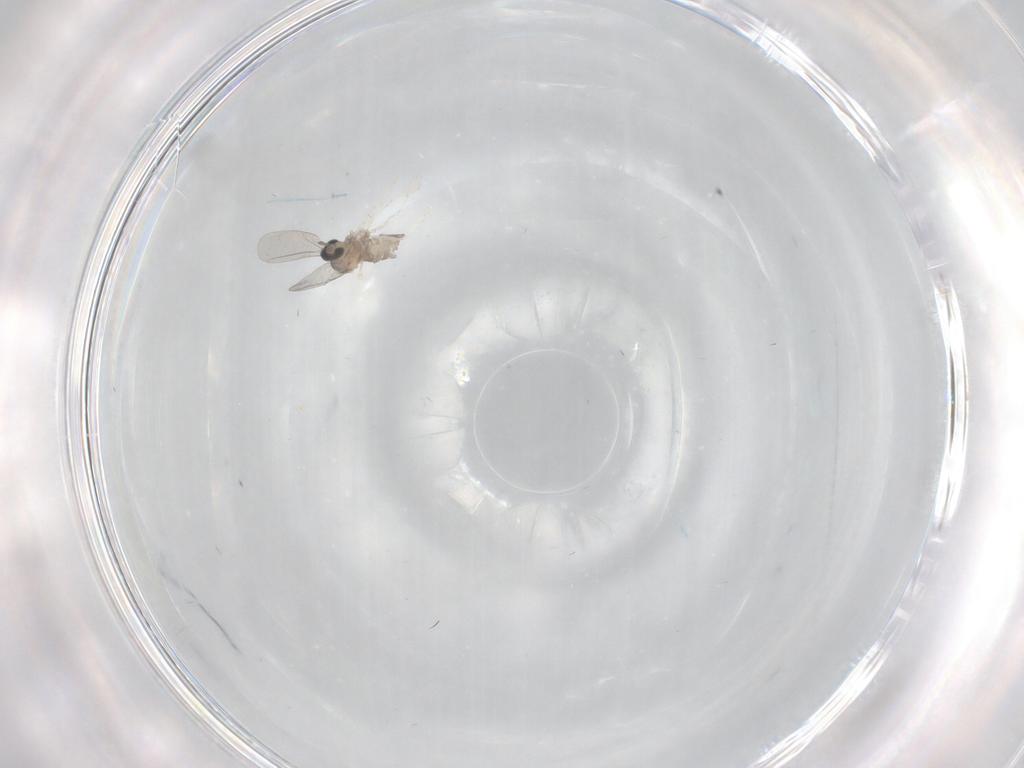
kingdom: Animalia
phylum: Arthropoda
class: Insecta
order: Diptera
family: Cecidomyiidae
